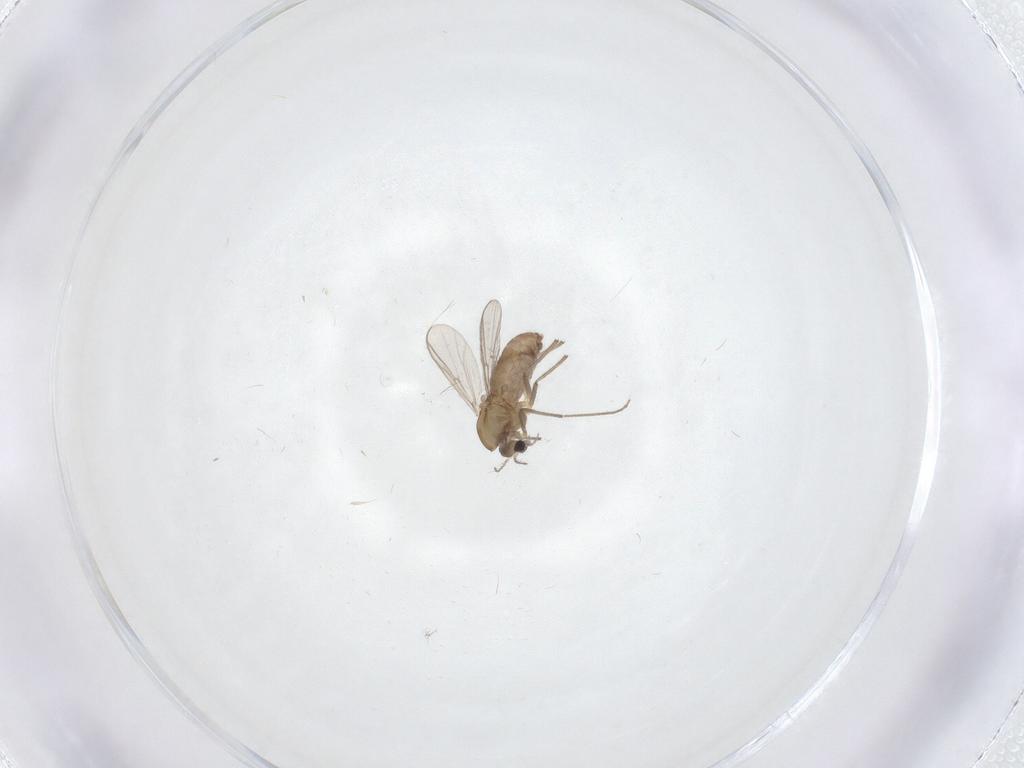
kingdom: Animalia
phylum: Arthropoda
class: Insecta
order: Diptera
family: Chironomidae
